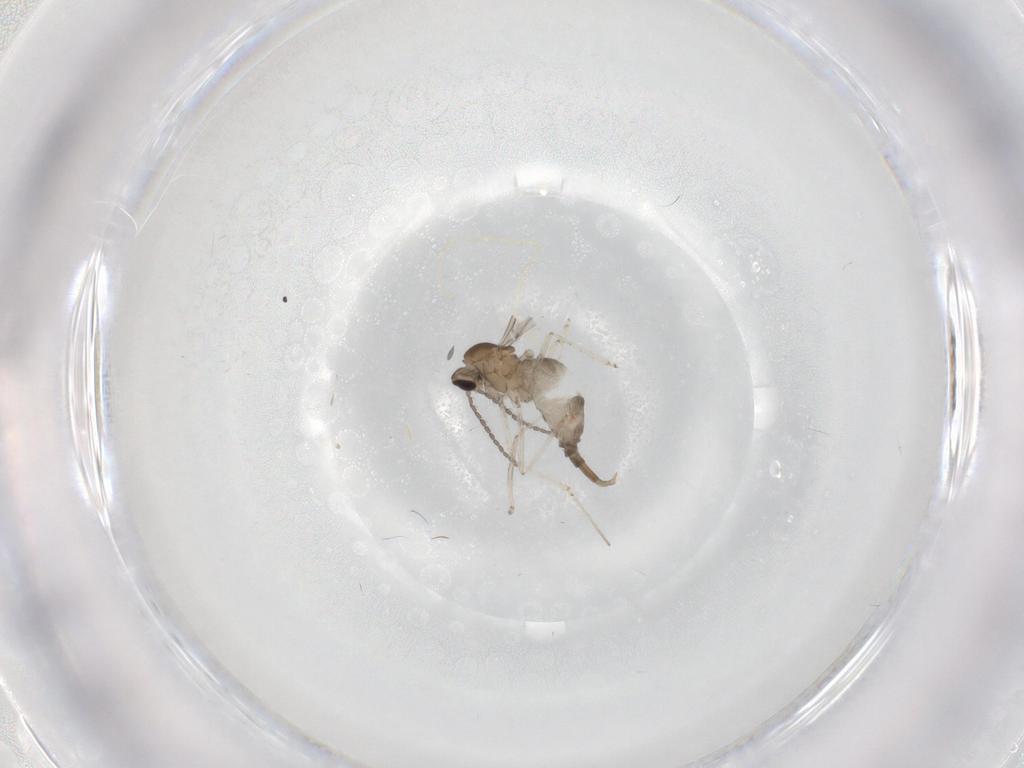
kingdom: Animalia
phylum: Arthropoda
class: Insecta
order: Diptera
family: Cecidomyiidae
